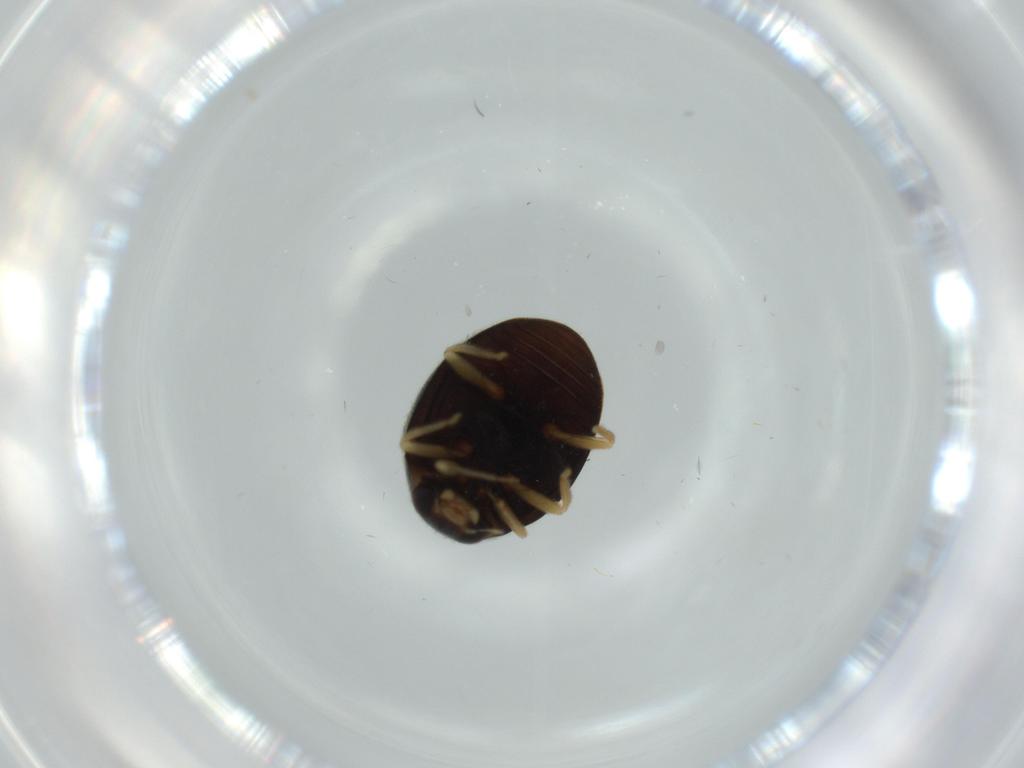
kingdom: Animalia
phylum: Arthropoda
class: Insecta
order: Coleoptera
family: Coccinellidae
